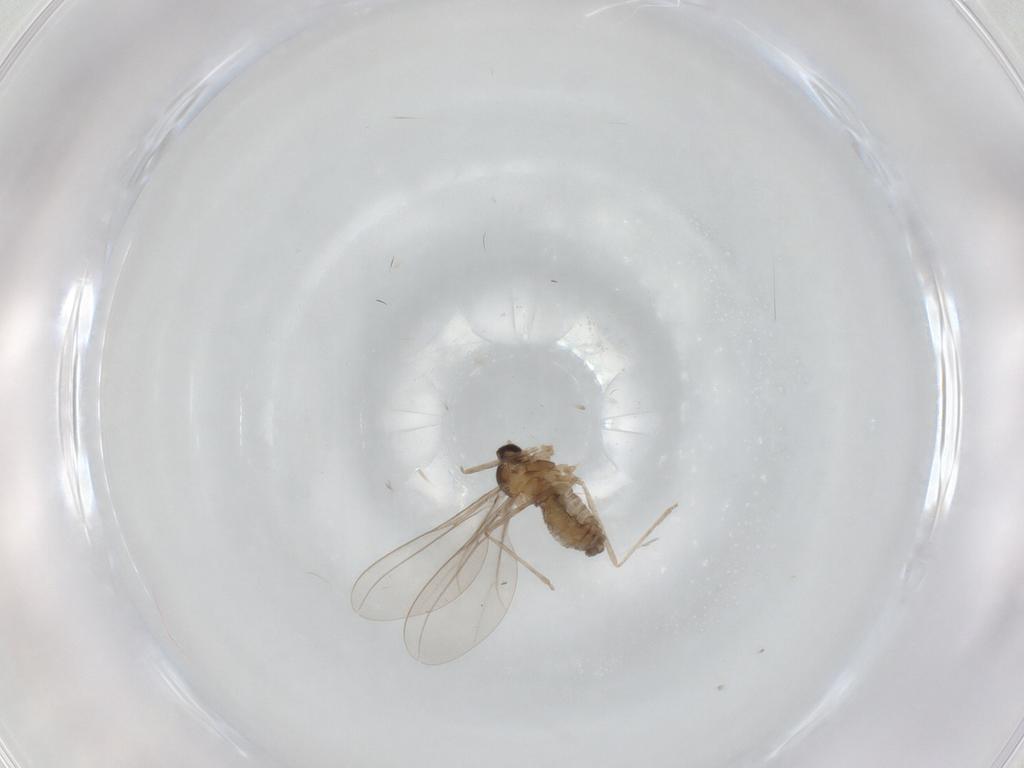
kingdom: Animalia
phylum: Arthropoda
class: Insecta
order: Diptera
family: Cecidomyiidae
